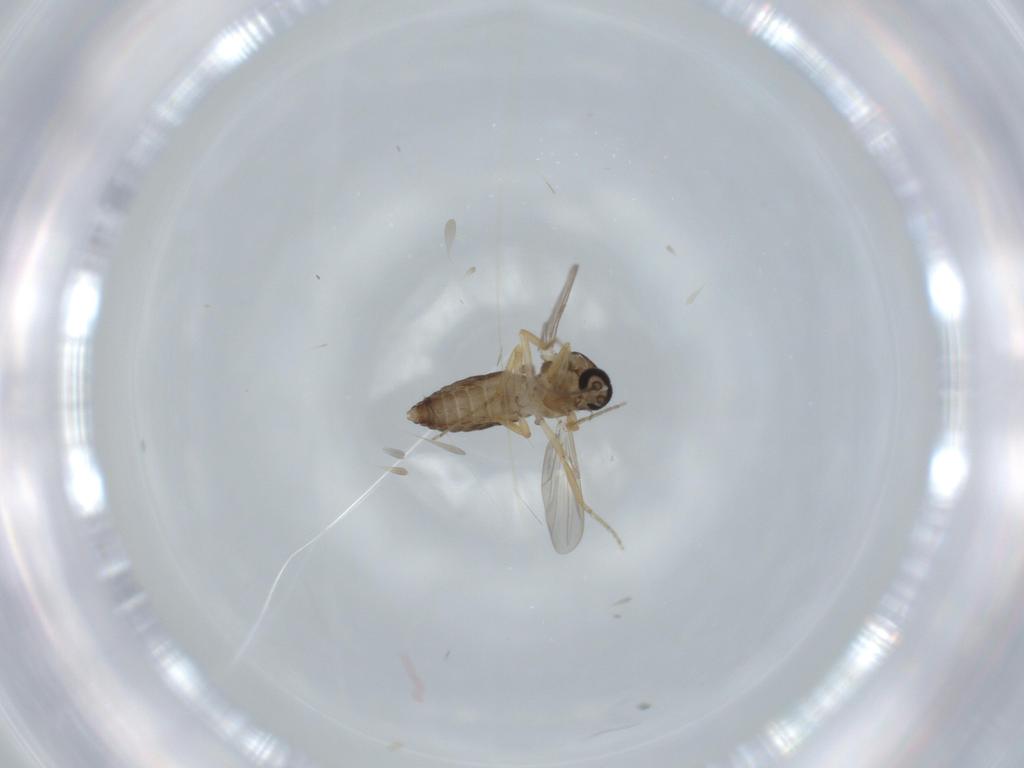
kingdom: Animalia
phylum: Arthropoda
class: Insecta
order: Diptera
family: Ceratopogonidae
